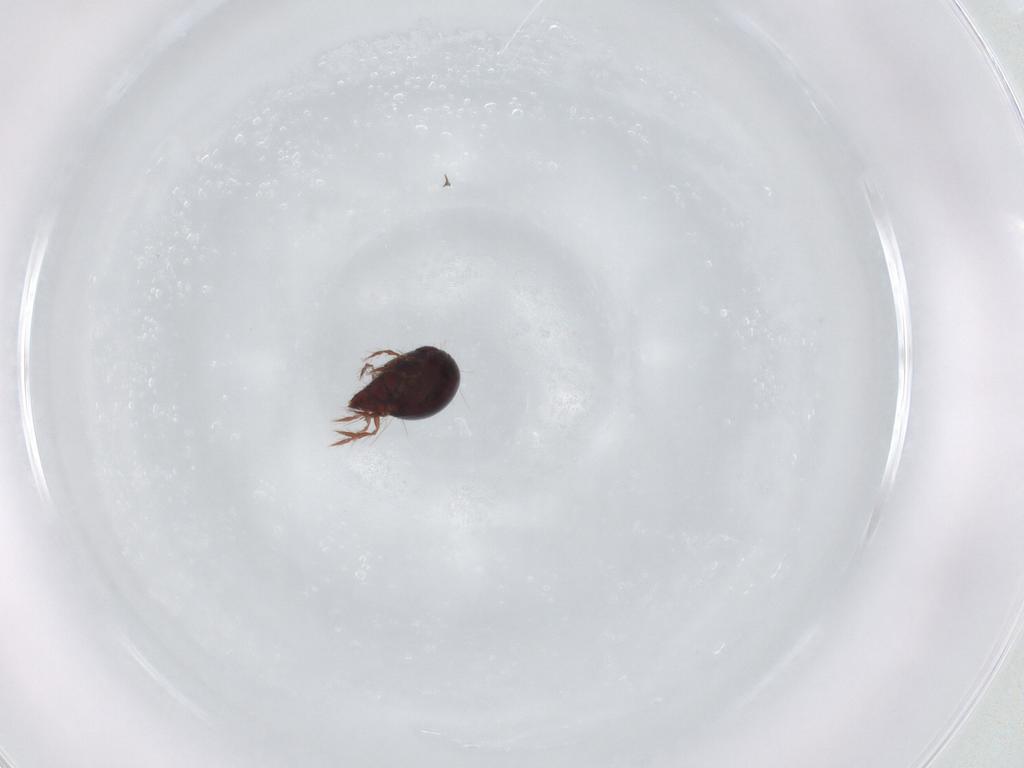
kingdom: Animalia
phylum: Arthropoda
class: Arachnida
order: Sarcoptiformes
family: Ceratoppiidae
